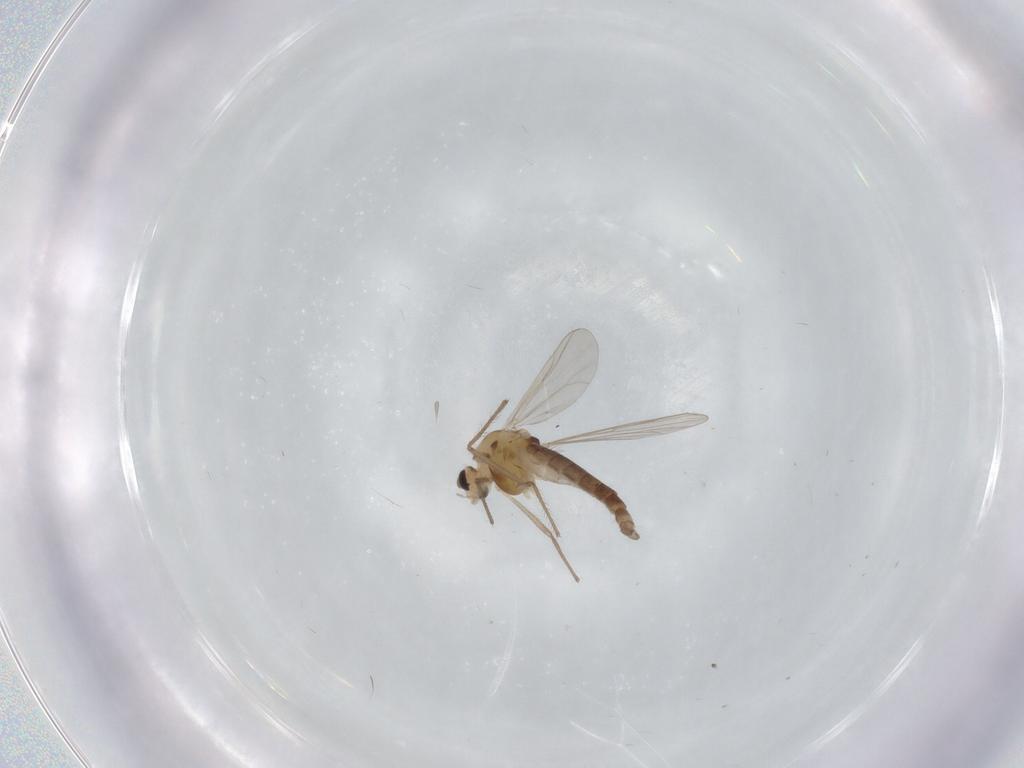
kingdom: Animalia
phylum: Arthropoda
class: Insecta
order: Diptera
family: Chironomidae
